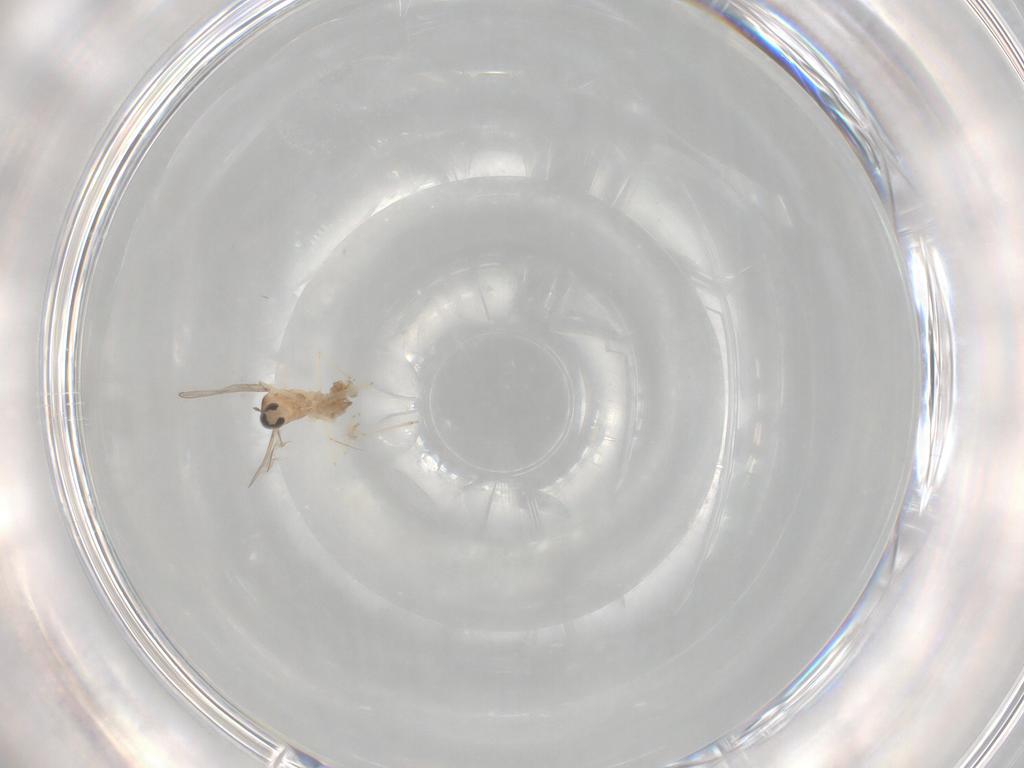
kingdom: Animalia
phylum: Arthropoda
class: Insecta
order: Diptera
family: Cecidomyiidae
